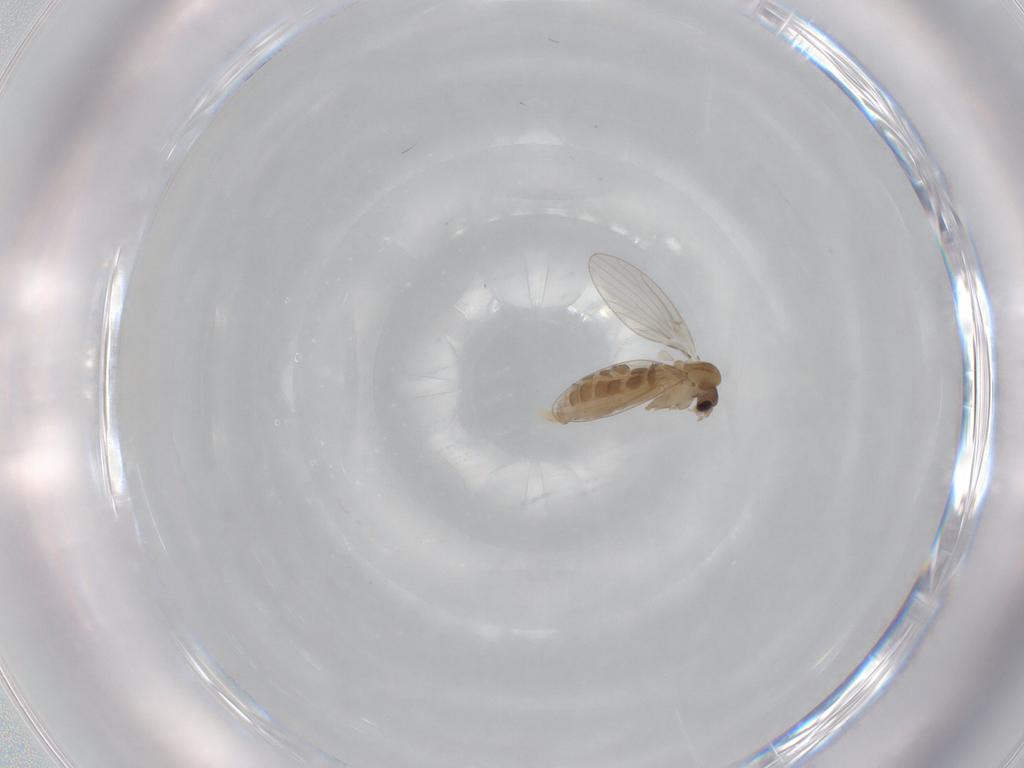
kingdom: Animalia
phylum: Arthropoda
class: Insecta
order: Diptera
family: Psychodidae
